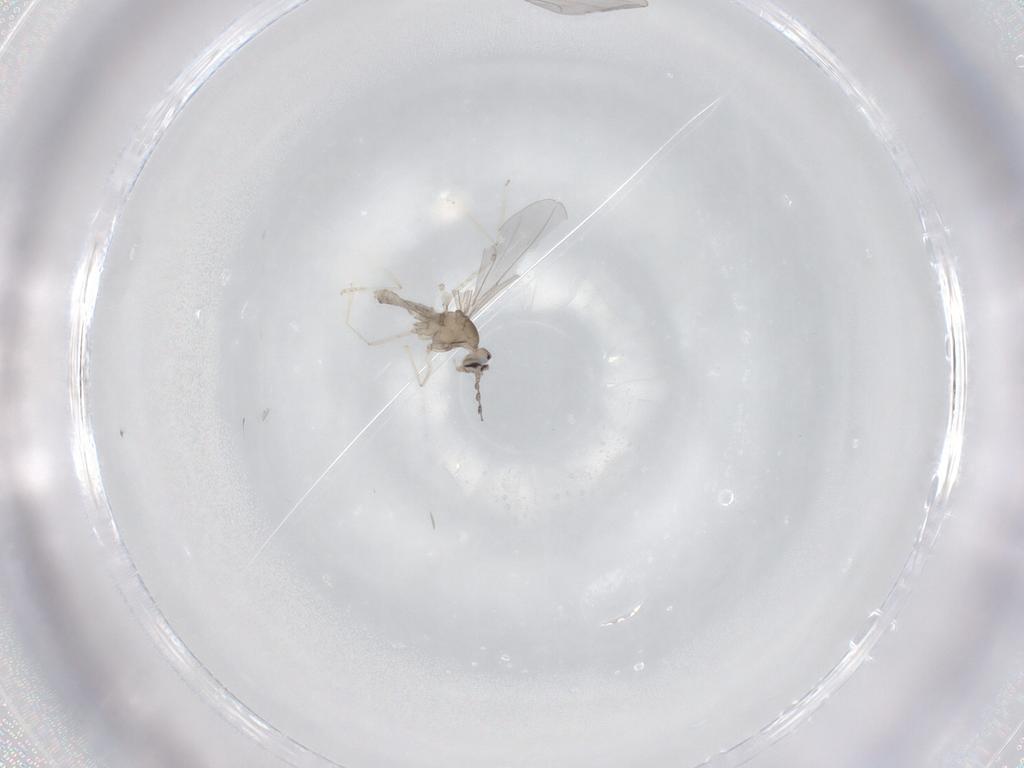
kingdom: Animalia
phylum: Arthropoda
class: Insecta
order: Diptera
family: Cecidomyiidae
